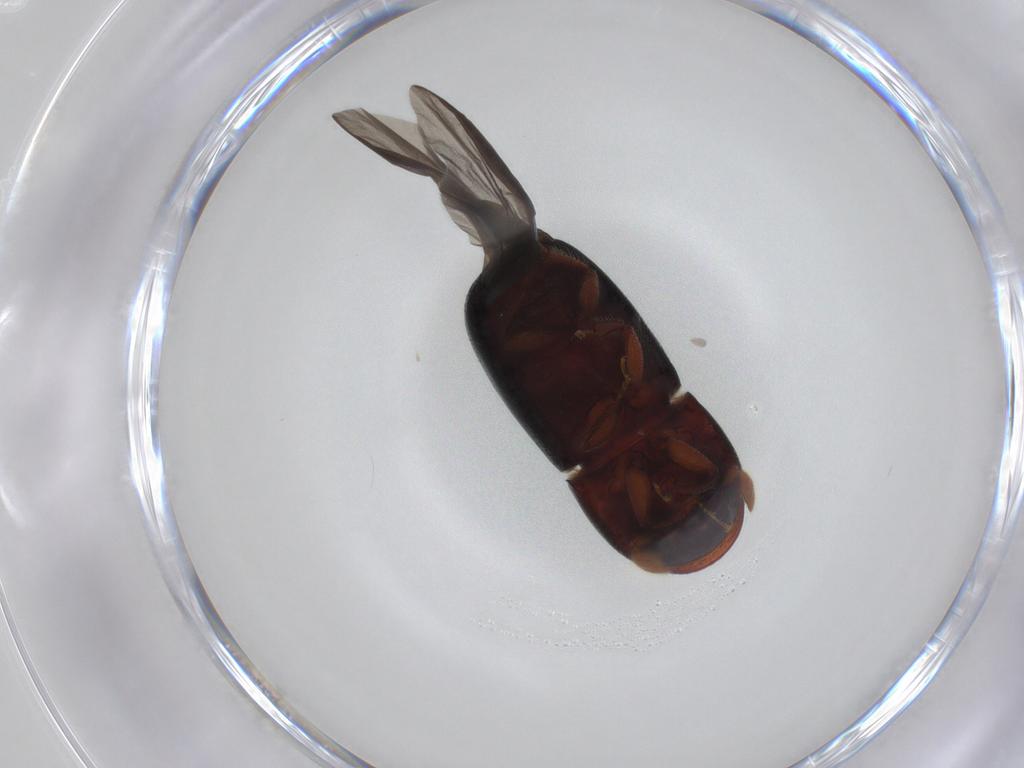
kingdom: Animalia
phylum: Arthropoda
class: Insecta
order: Coleoptera
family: Curculionidae
